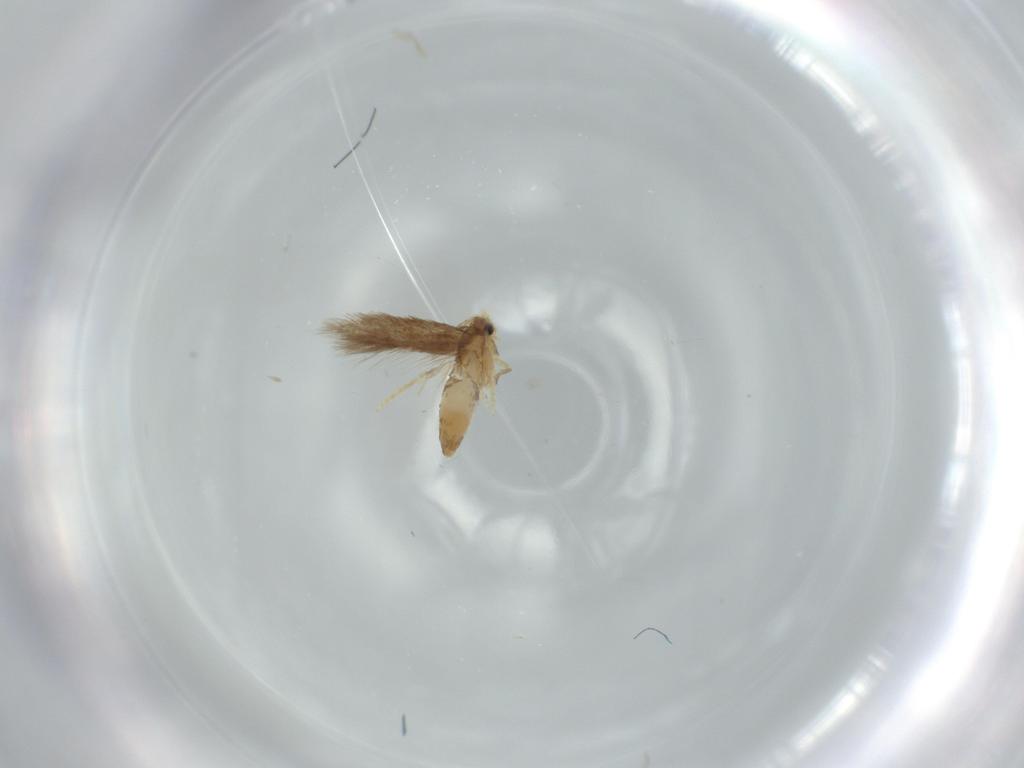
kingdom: Animalia
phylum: Arthropoda
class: Insecta
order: Lepidoptera
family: Nepticulidae
